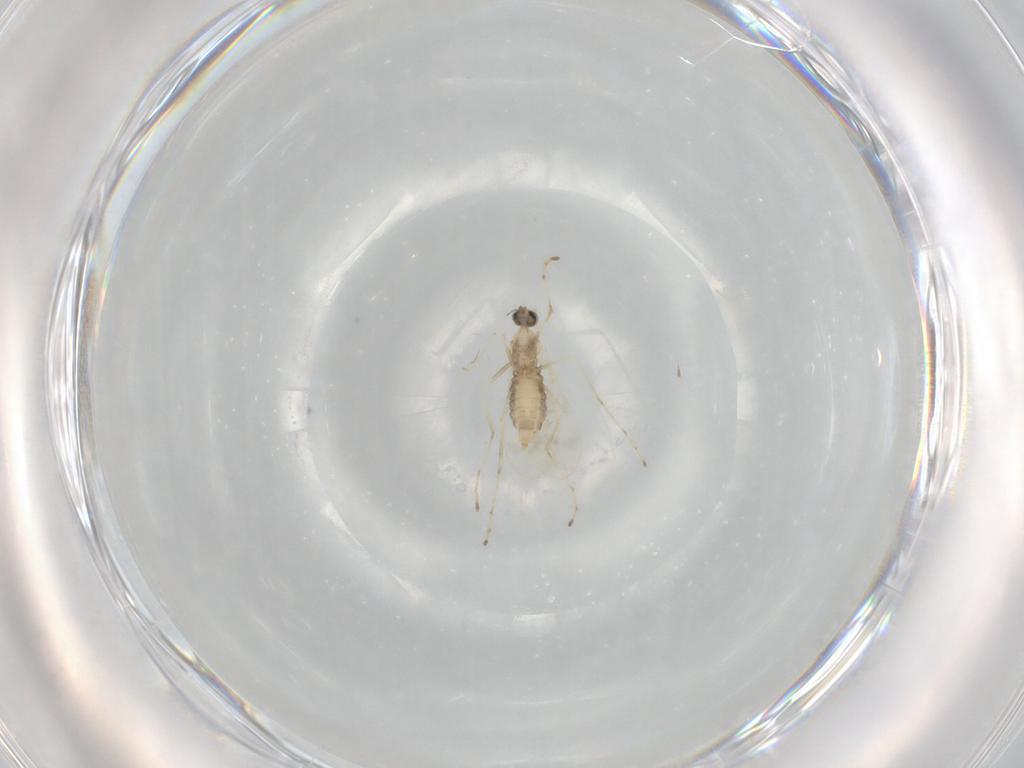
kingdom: Animalia
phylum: Arthropoda
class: Insecta
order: Diptera
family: Cecidomyiidae
